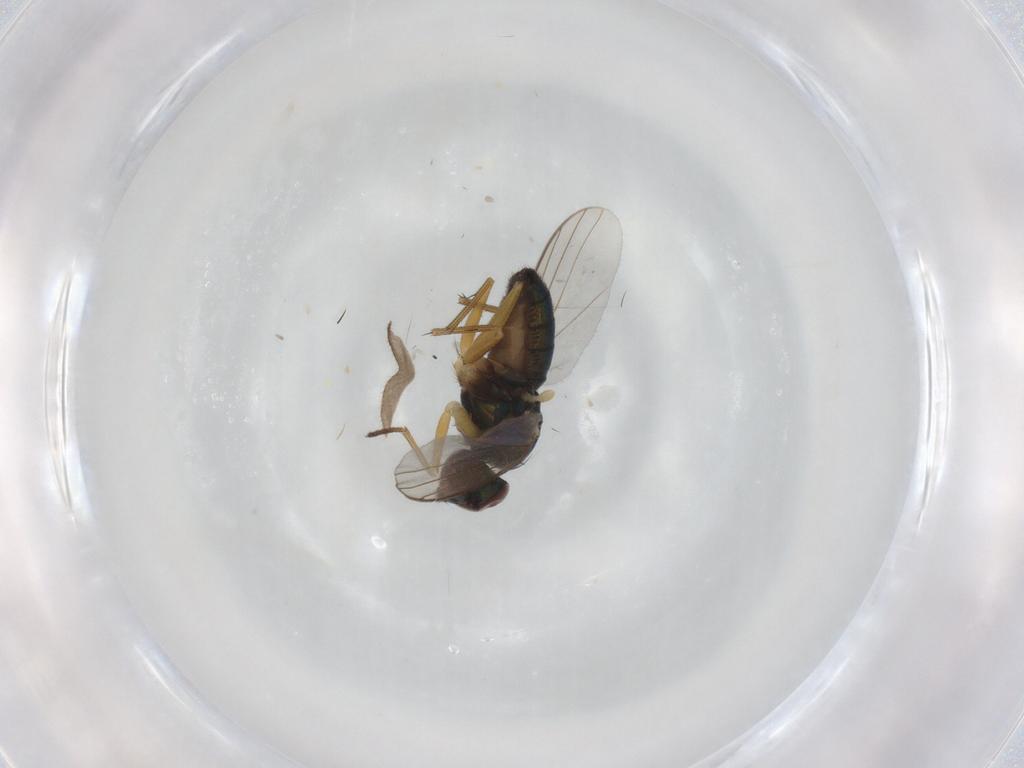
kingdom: Animalia
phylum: Arthropoda
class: Insecta
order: Diptera
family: Dolichopodidae
